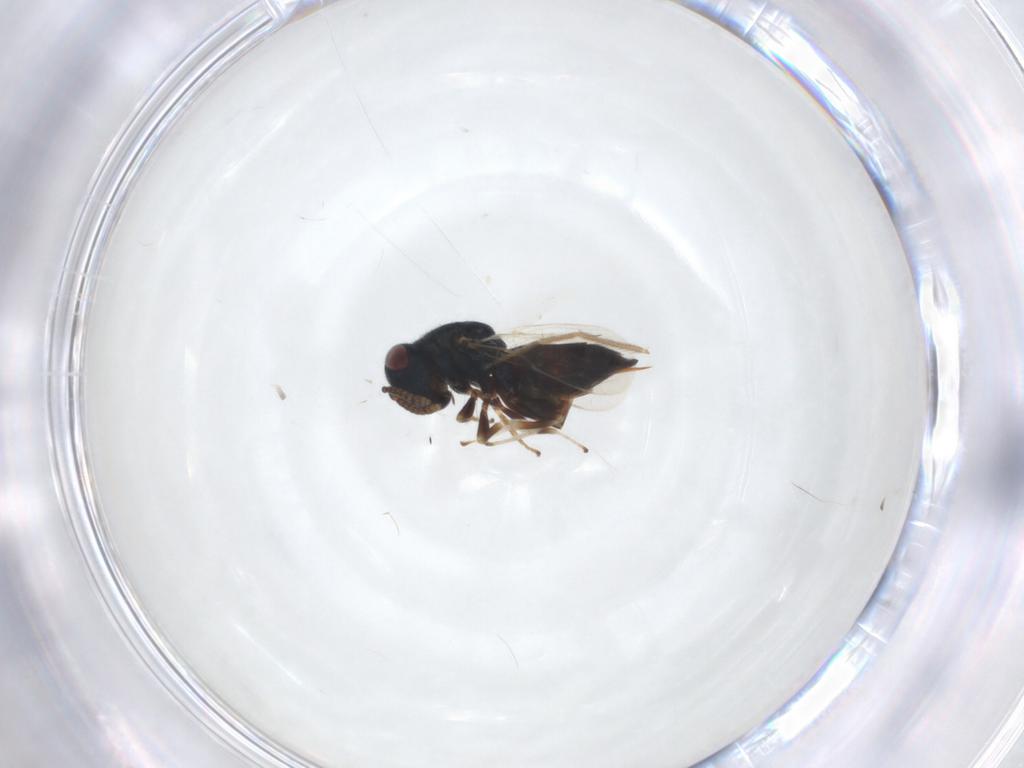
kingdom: Animalia
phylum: Arthropoda
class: Insecta
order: Hymenoptera
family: Pteromalidae
